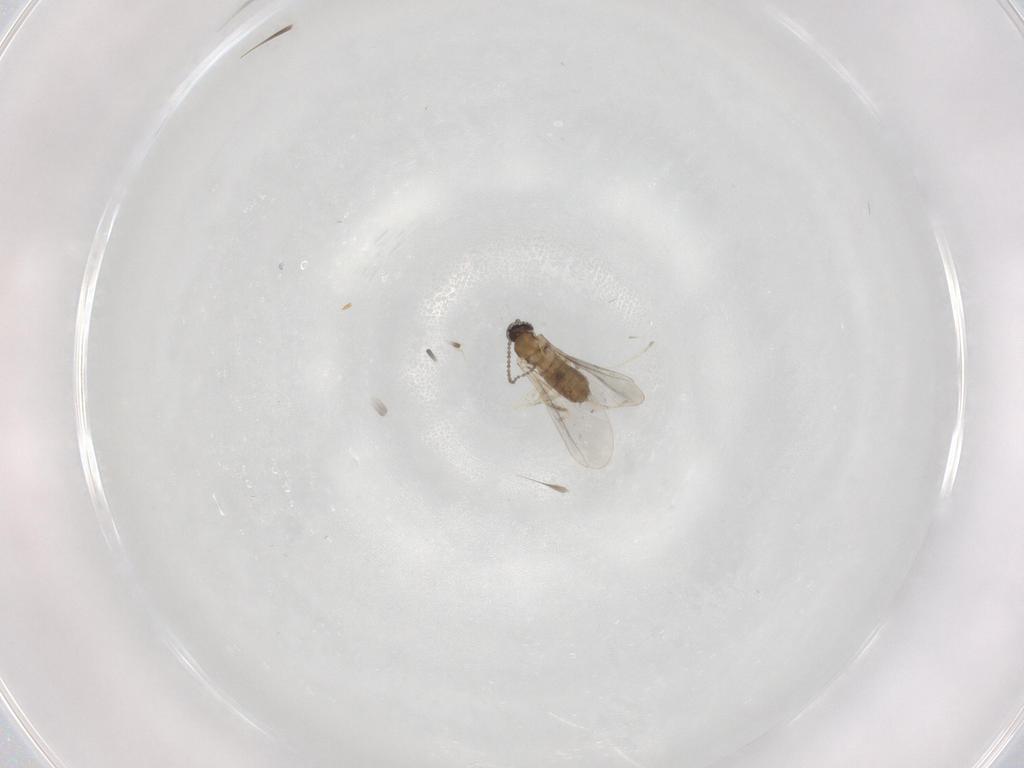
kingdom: Animalia
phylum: Arthropoda
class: Insecta
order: Diptera
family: Cecidomyiidae
